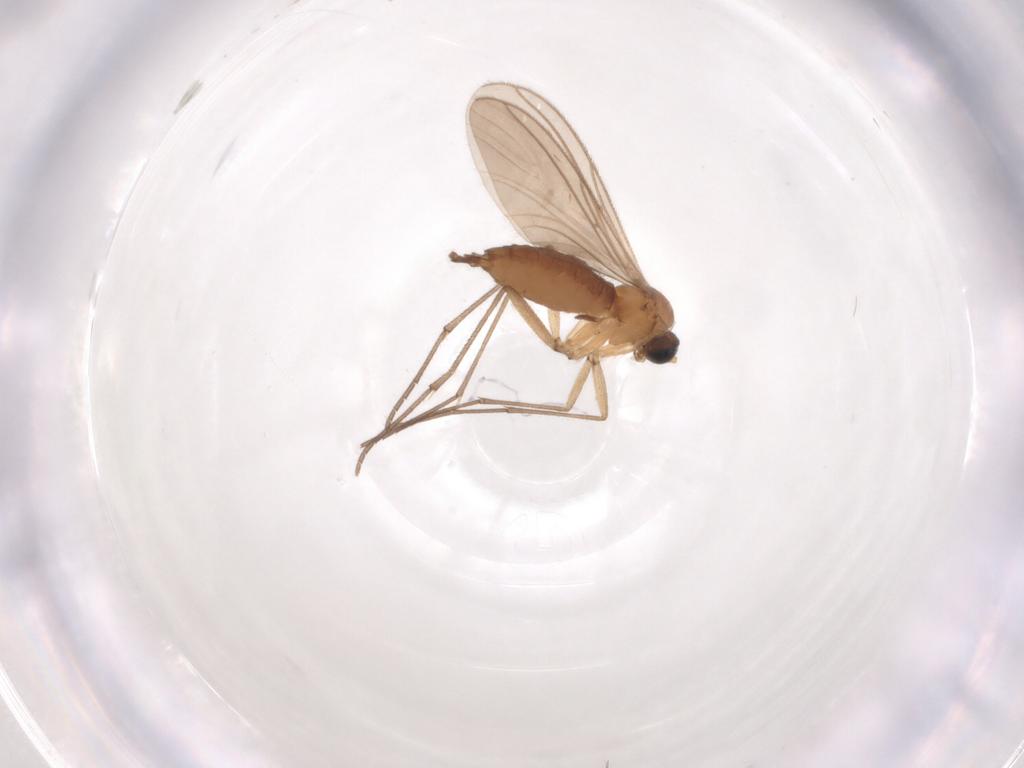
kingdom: Animalia
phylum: Arthropoda
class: Insecta
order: Diptera
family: Sciaridae
